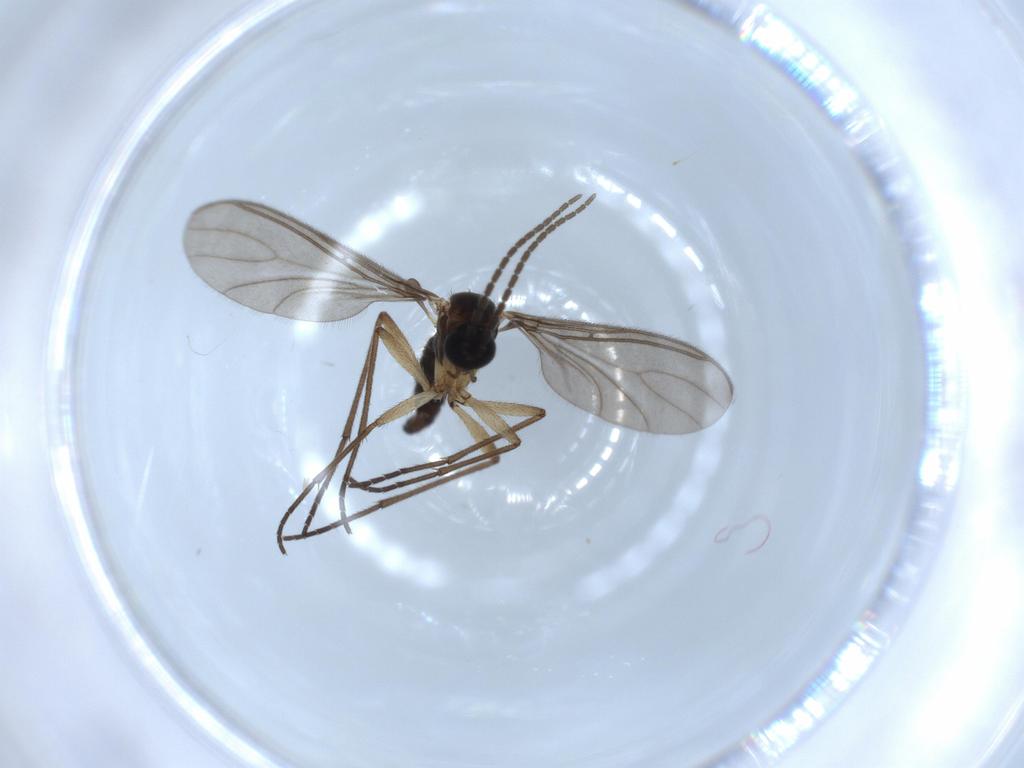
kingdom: Animalia
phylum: Arthropoda
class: Insecta
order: Diptera
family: Sciaridae
